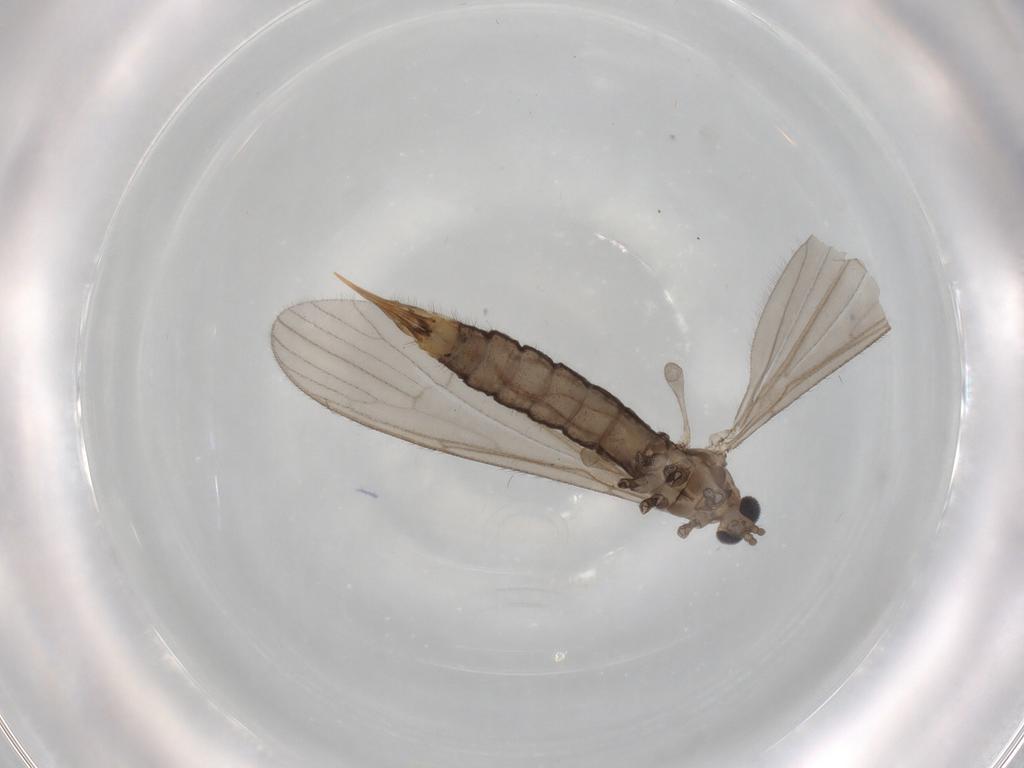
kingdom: Animalia
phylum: Arthropoda
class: Insecta
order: Diptera
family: Limoniidae
